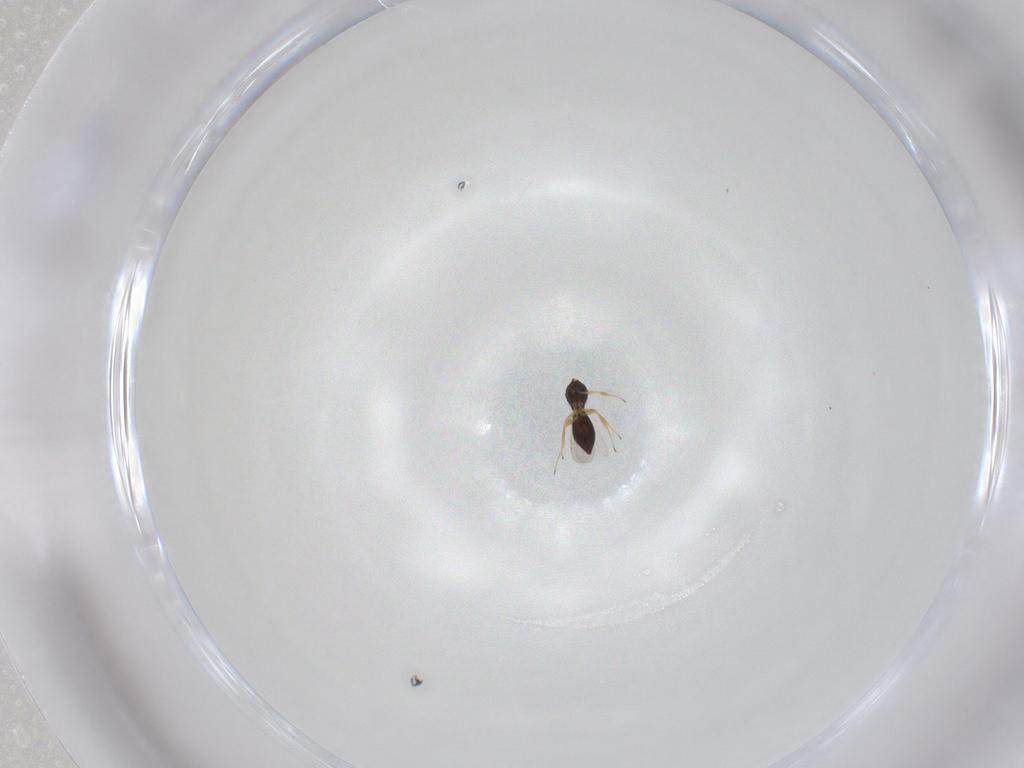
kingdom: Animalia
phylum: Arthropoda
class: Insecta
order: Hymenoptera
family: Scelionidae
